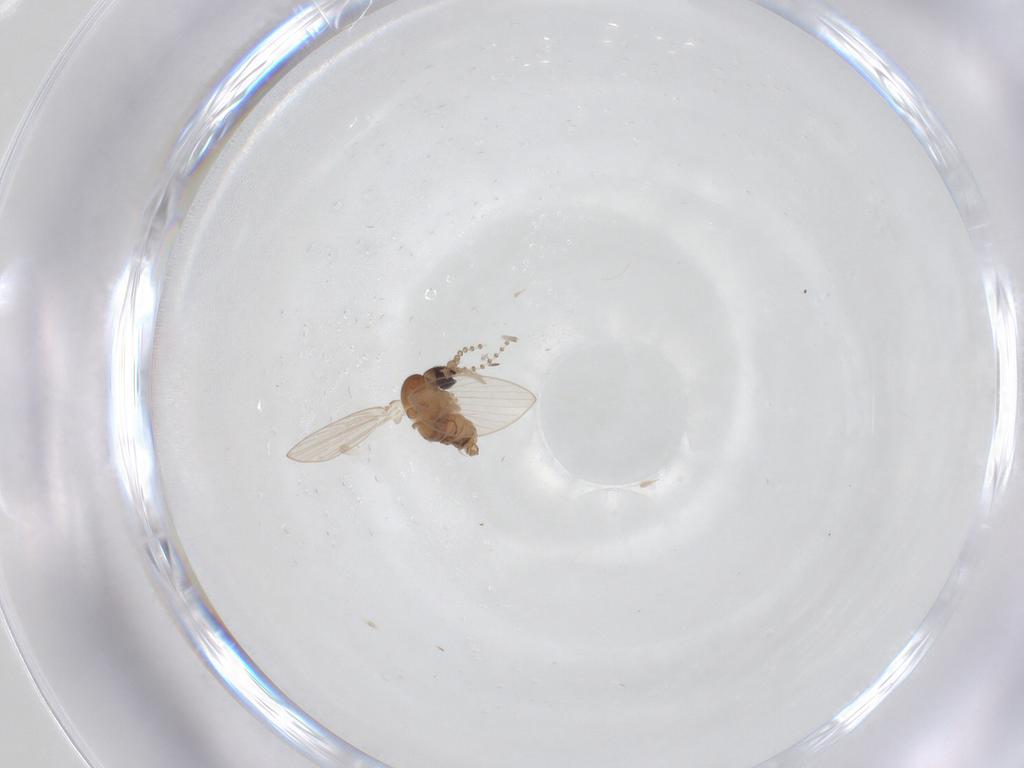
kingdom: Animalia
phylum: Arthropoda
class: Insecta
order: Diptera
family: Psychodidae
